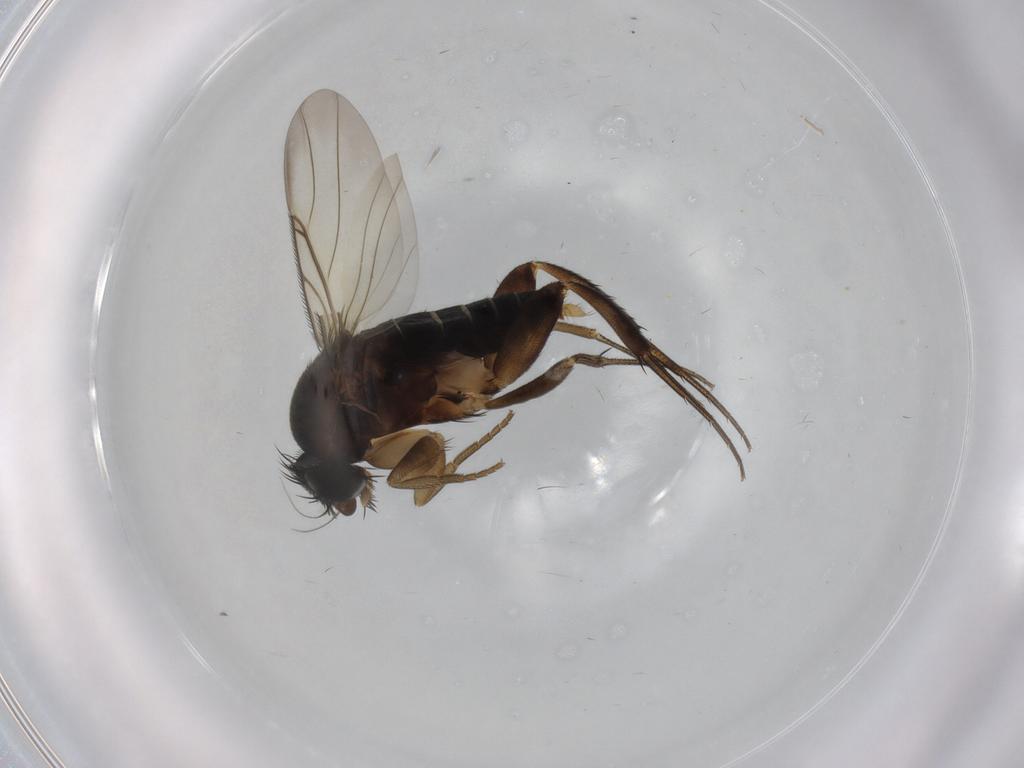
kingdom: Animalia
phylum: Arthropoda
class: Insecta
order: Diptera
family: Phoridae
